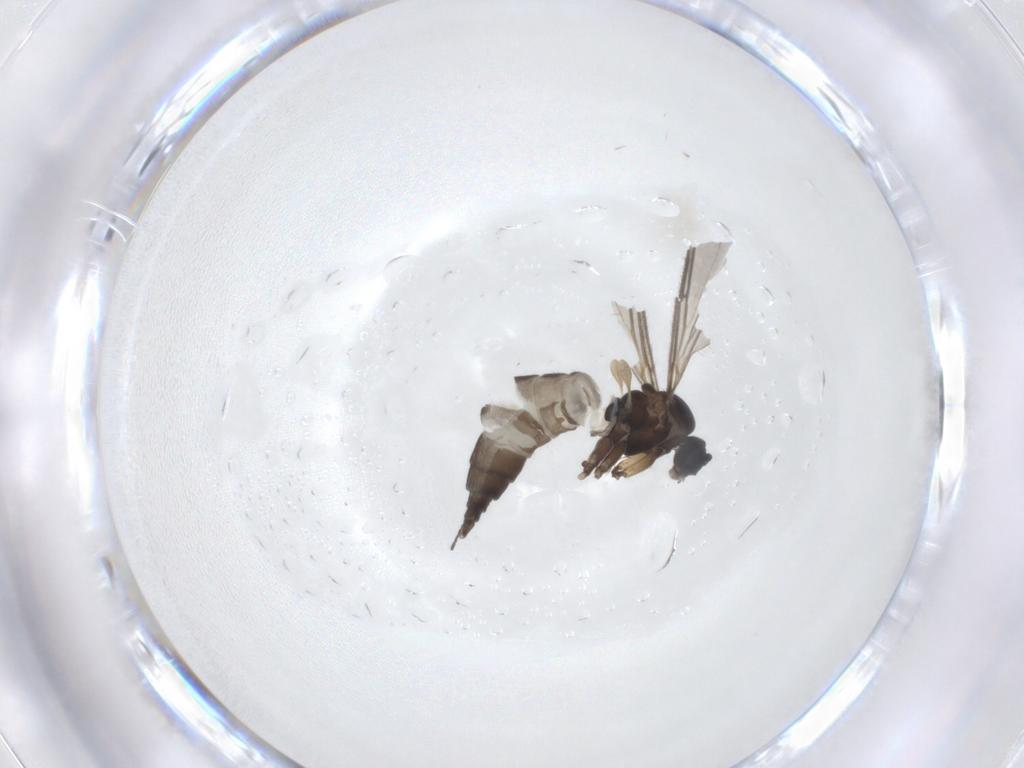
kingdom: Animalia
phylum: Arthropoda
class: Insecta
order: Diptera
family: Sciaridae
